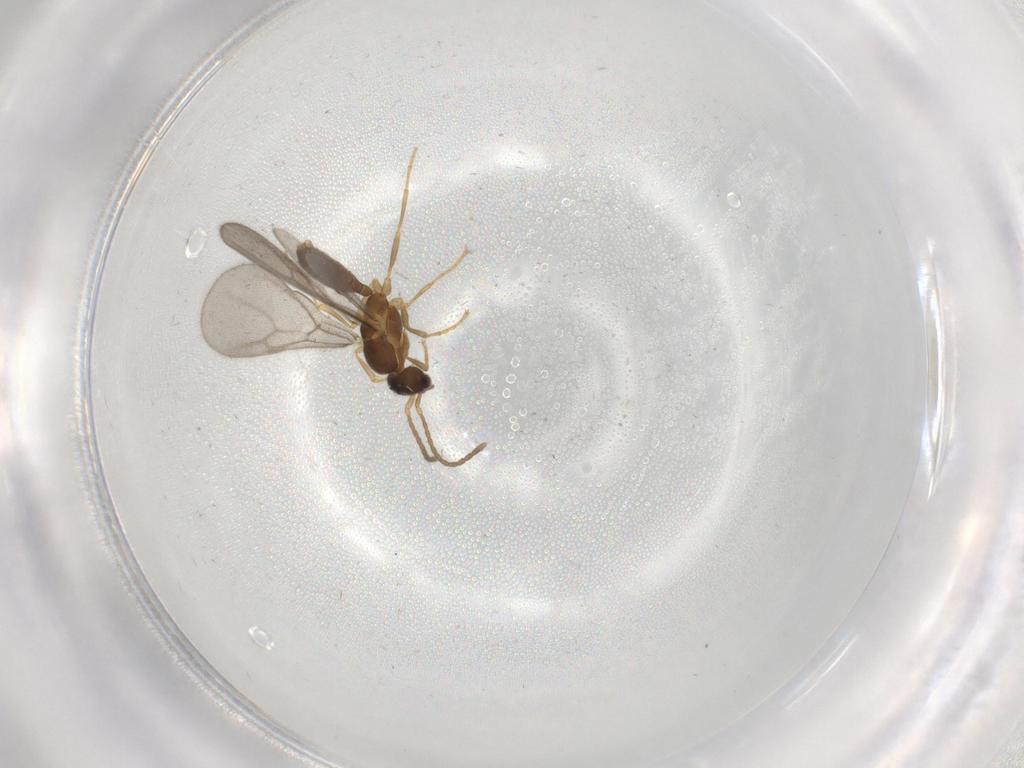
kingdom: Animalia
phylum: Arthropoda
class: Insecta
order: Hymenoptera
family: Formicidae
